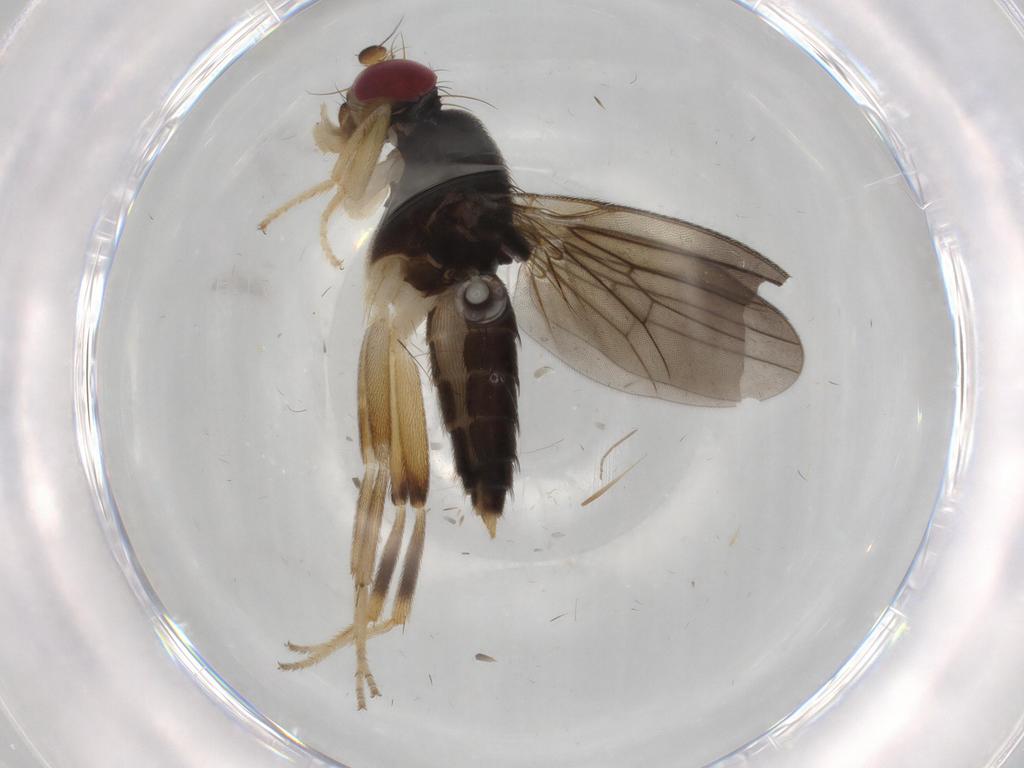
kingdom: Animalia
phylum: Arthropoda
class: Insecta
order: Diptera
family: Clusiidae
